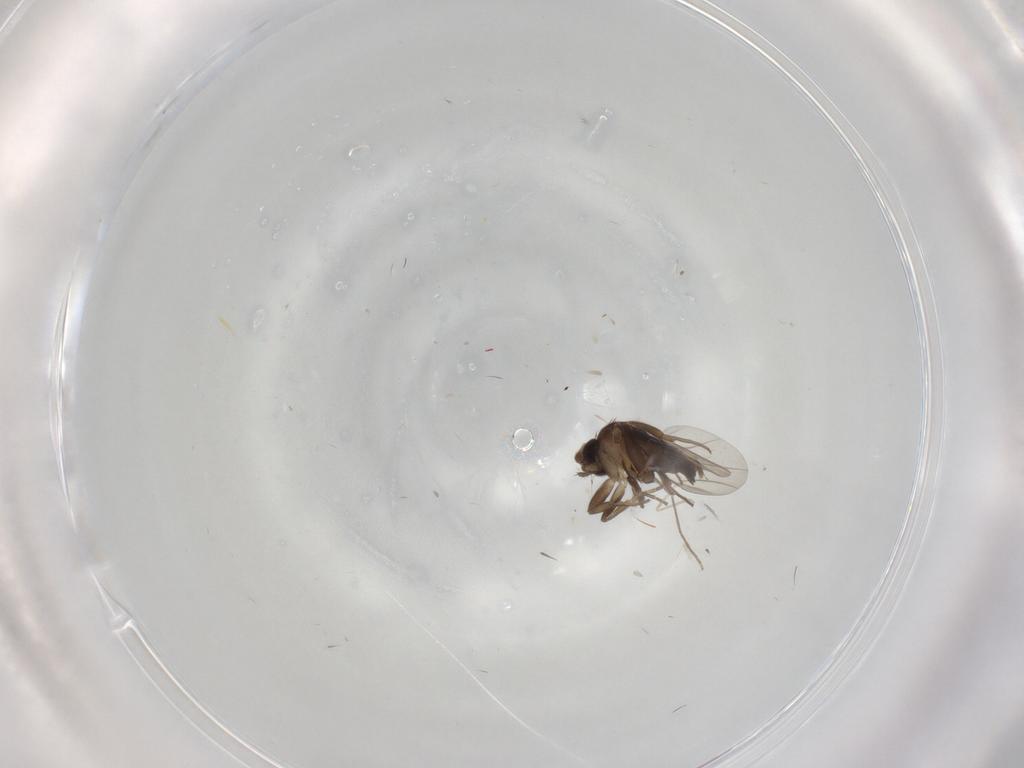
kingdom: Animalia
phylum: Arthropoda
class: Insecta
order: Diptera
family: Phoridae
